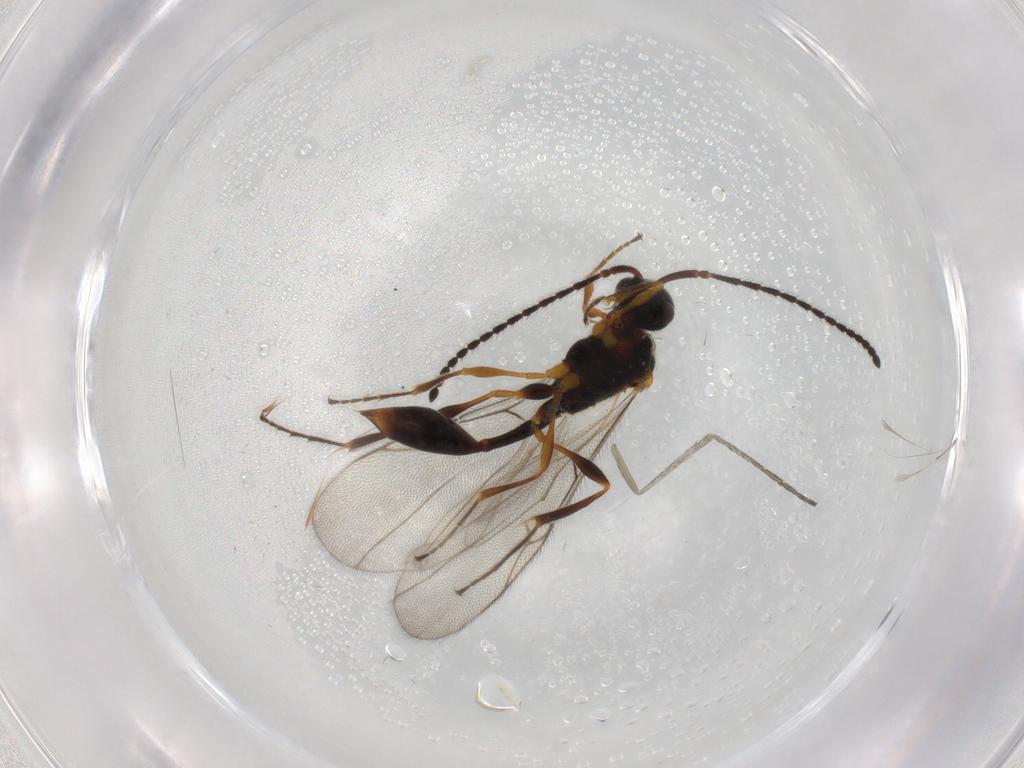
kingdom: Animalia
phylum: Arthropoda
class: Insecta
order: Hymenoptera
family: Diapriidae
